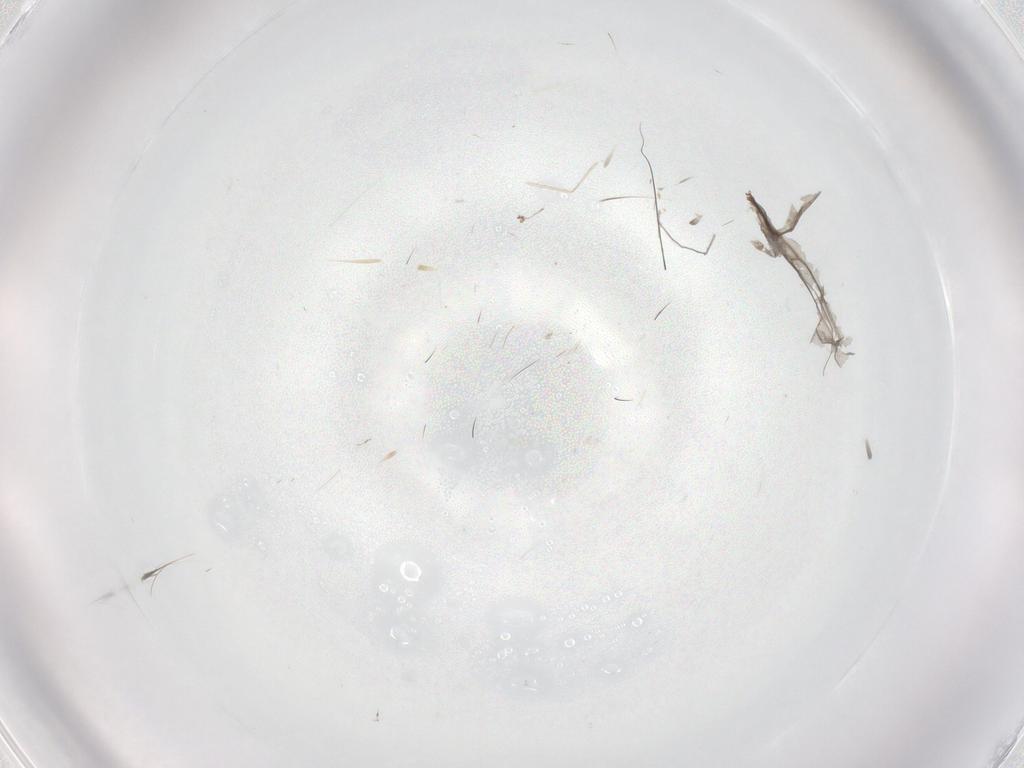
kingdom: Animalia
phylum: Arthropoda
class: Insecta
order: Diptera
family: Cecidomyiidae
